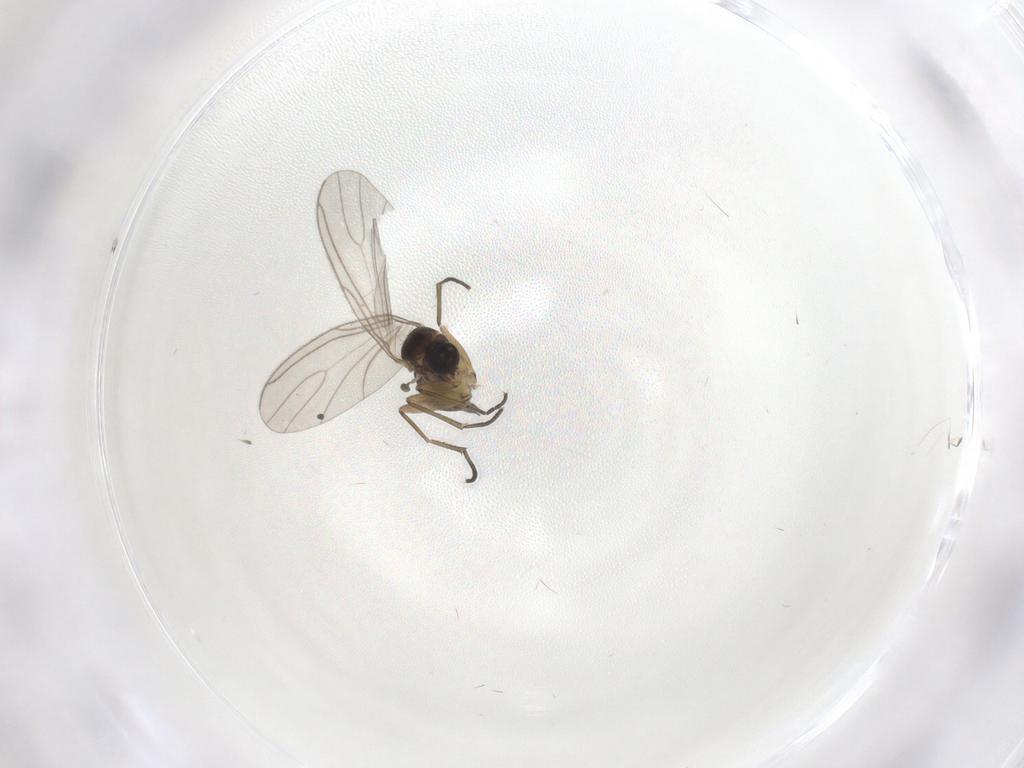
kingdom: Animalia
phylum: Arthropoda
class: Insecta
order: Diptera
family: Sciaridae
